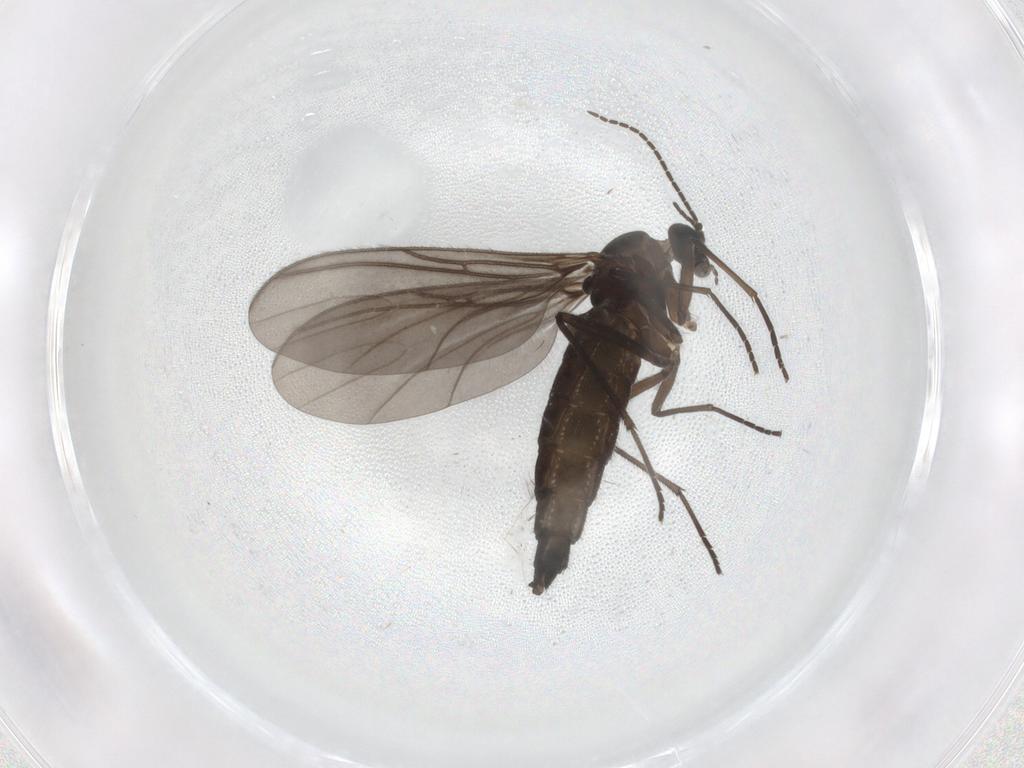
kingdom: Animalia
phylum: Arthropoda
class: Insecta
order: Diptera
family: Sciaridae
